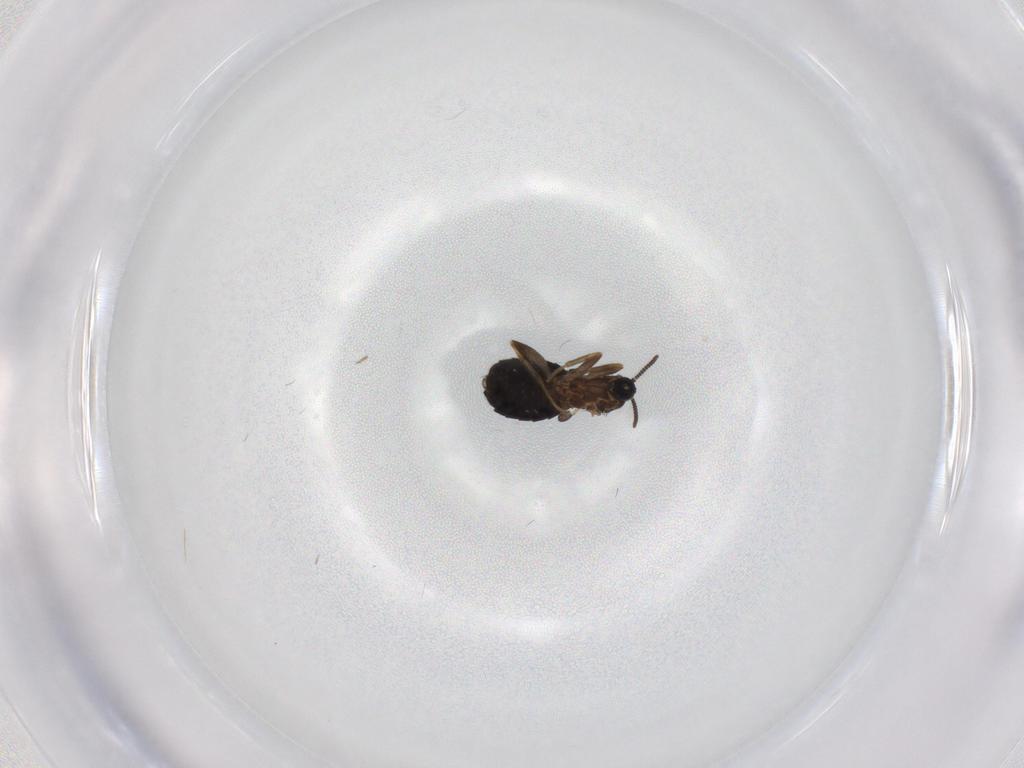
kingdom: Animalia
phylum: Arthropoda
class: Insecta
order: Diptera
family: Scatopsidae
